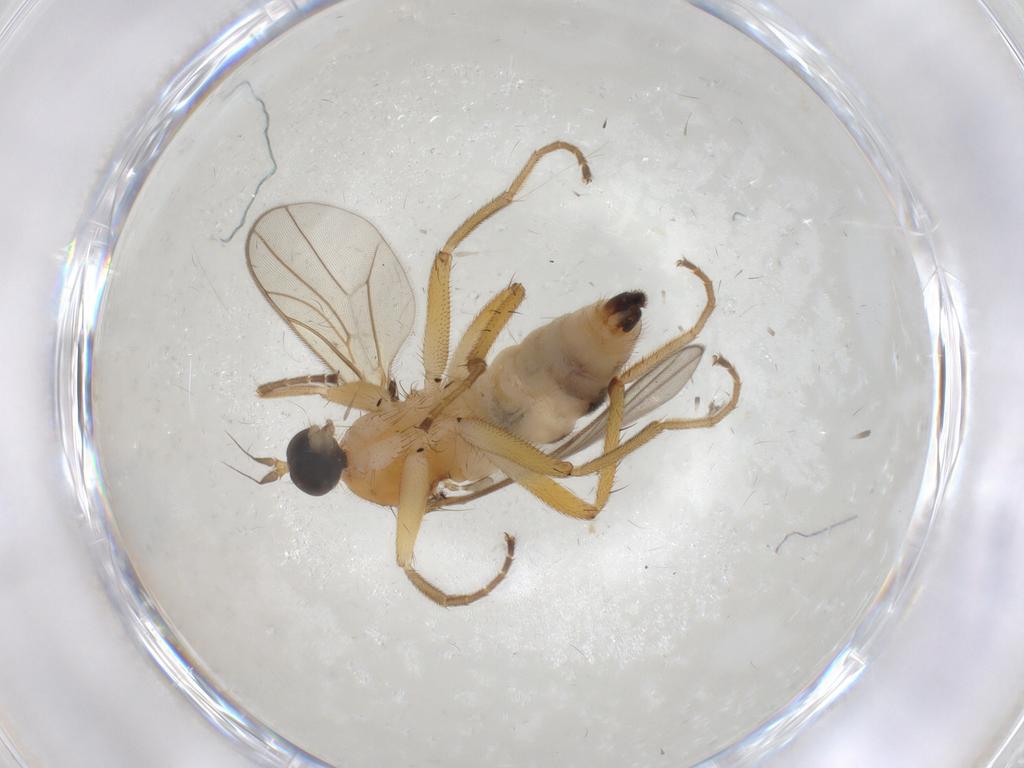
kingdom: Animalia
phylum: Arthropoda
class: Insecta
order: Diptera
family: Hybotidae
